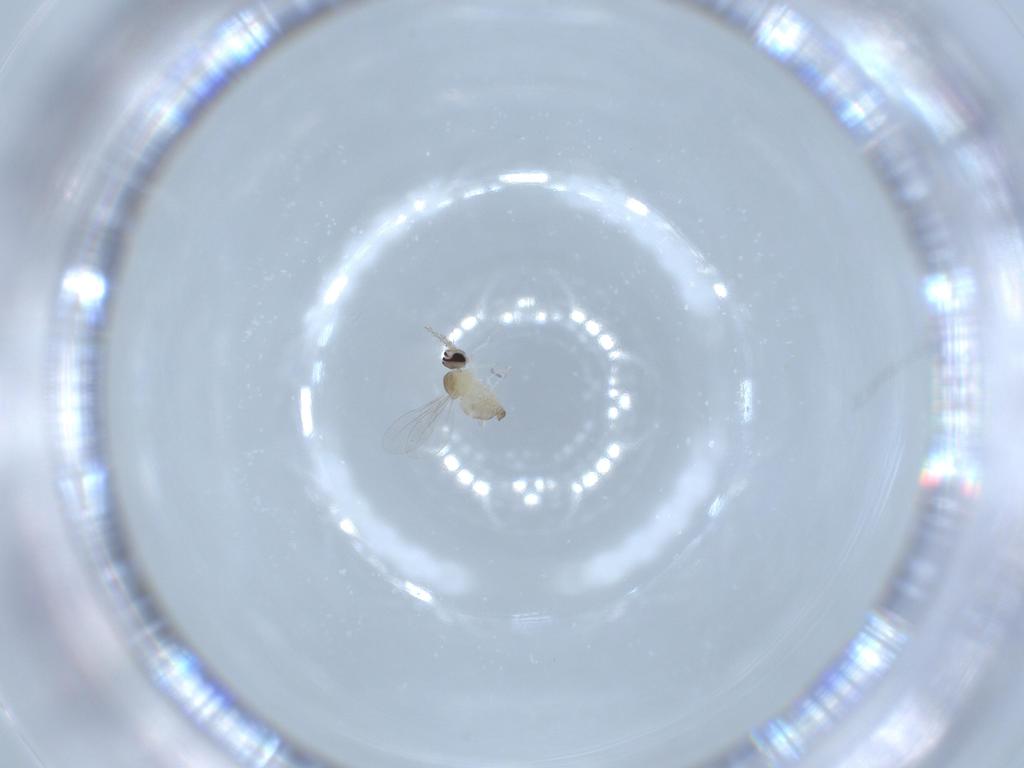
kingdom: Animalia
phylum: Arthropoda
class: Insecta
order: Diptera
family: Cecidomyiidae
